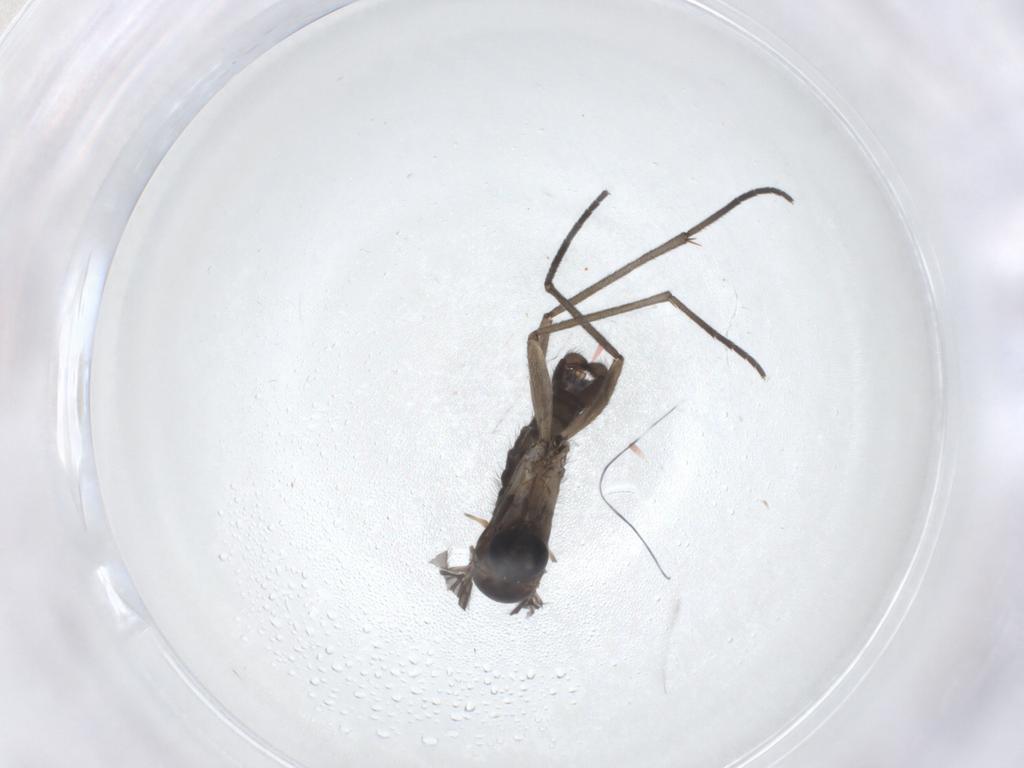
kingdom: Animalia
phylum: Arthropoda
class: Insecta
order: Diptera
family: Sciaridae
